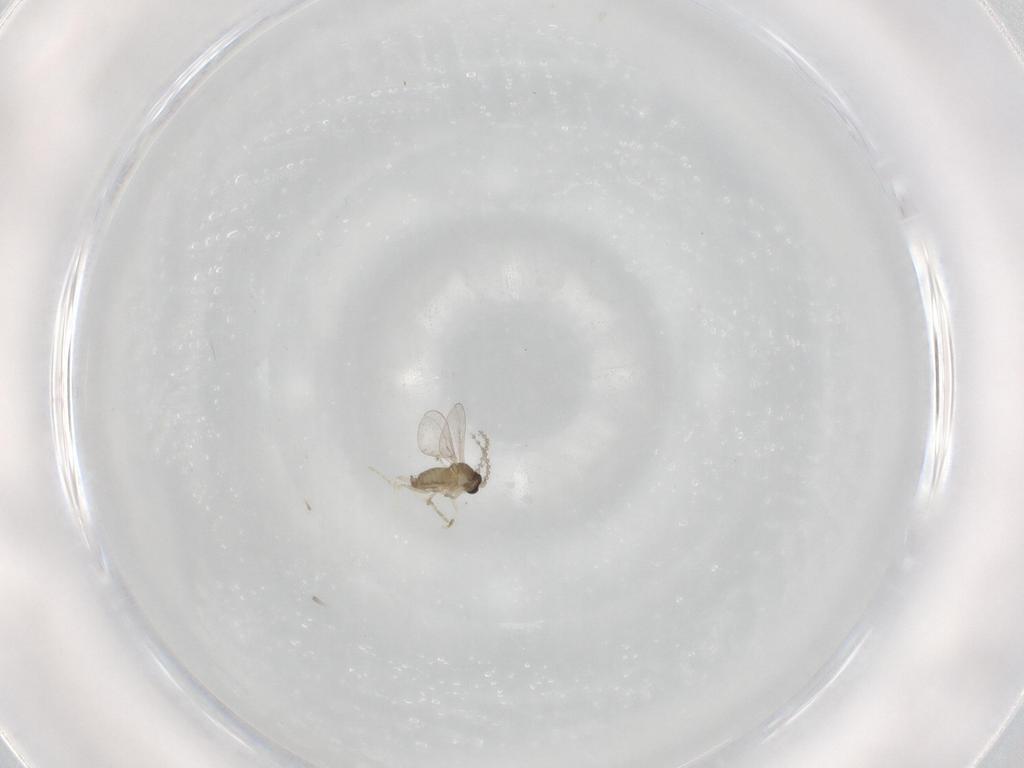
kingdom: Animalia
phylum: Arthropoda
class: Insecta
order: Diptera
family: Cecidomyiidae
